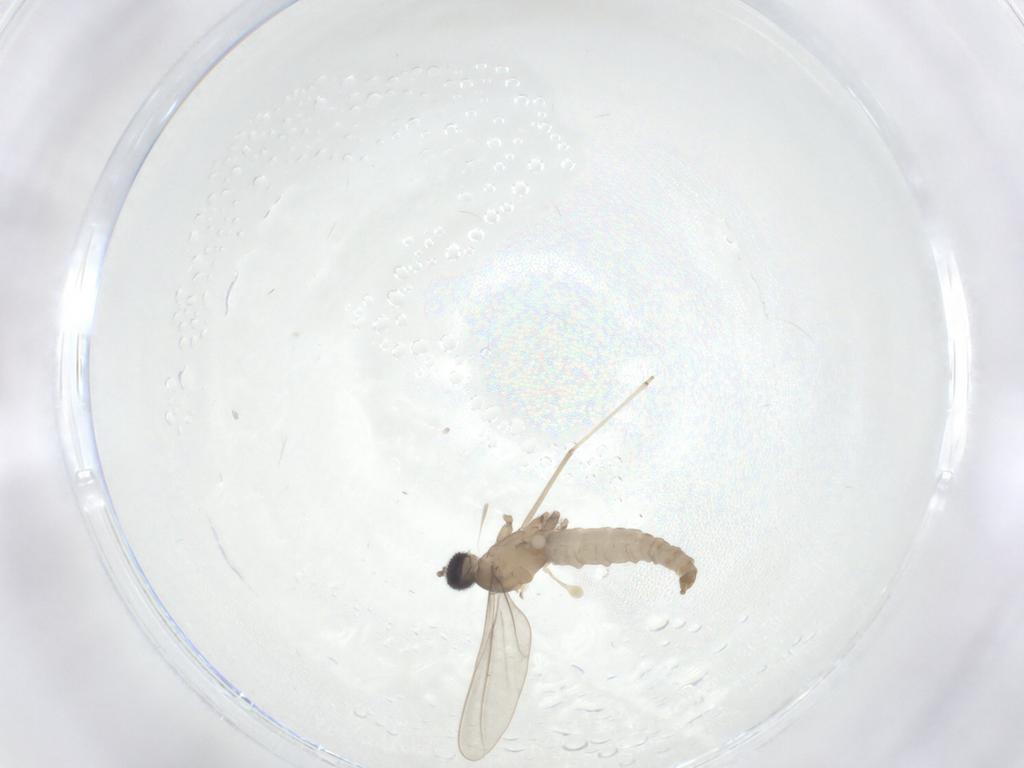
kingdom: Animalia
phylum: Arthropoda
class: Insecta
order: Diptera
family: Cecidomyiidae
